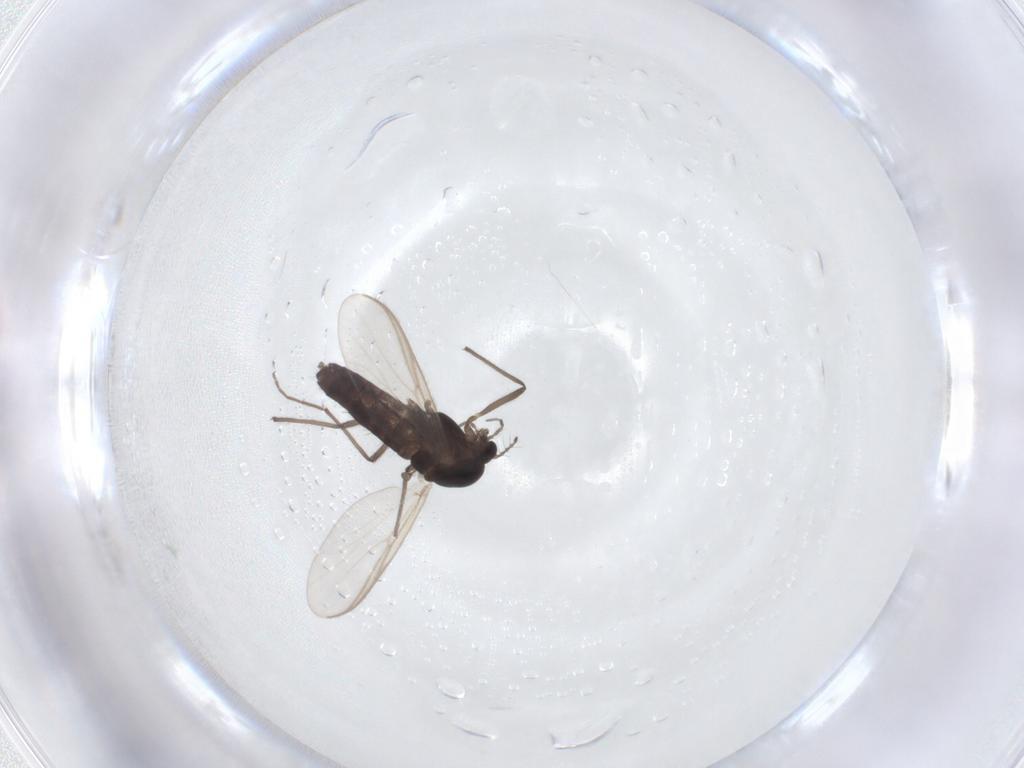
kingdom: Animalia
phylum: Arthropoda
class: Insecta
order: Diptera
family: Chironomidae
